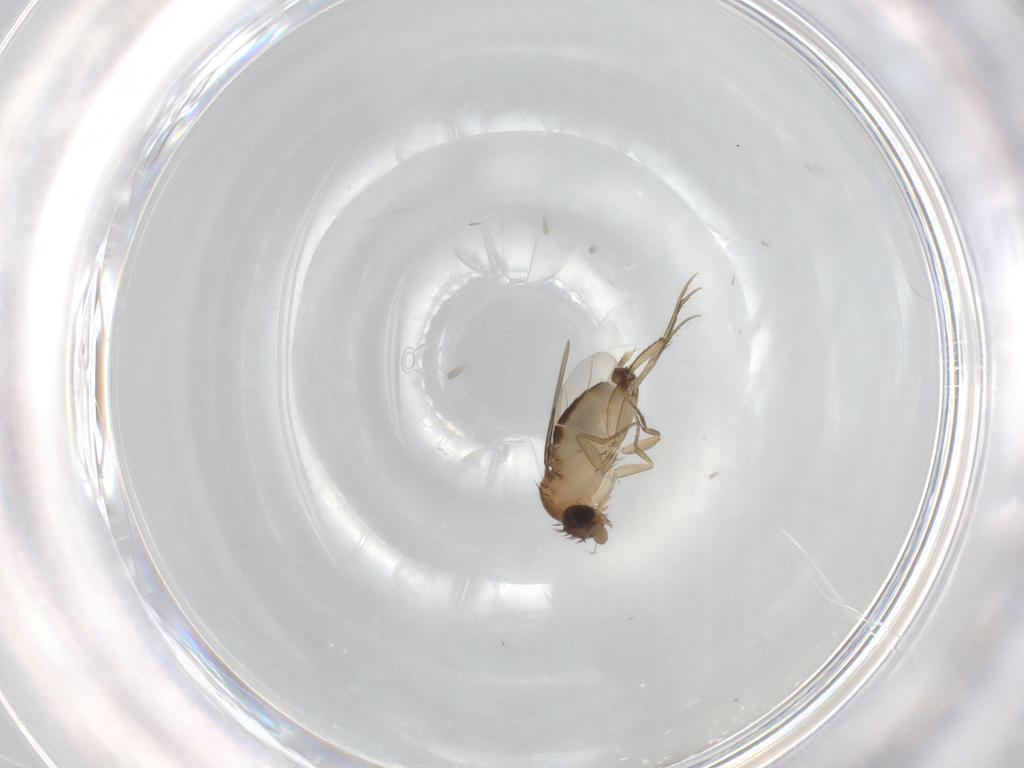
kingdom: Animalia
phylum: Arthropoda
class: Insecta
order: Diptera
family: Phoridae
